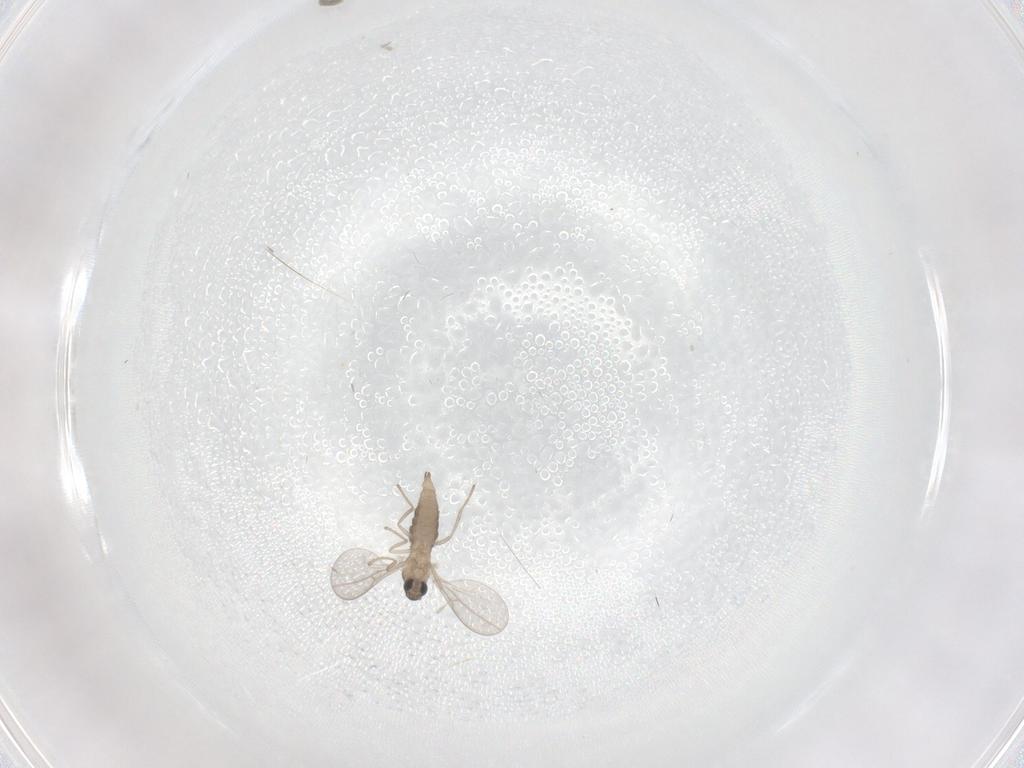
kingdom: Animalia
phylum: Arthropoda
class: Insecta
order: Diptera
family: Cecidomyiidae
